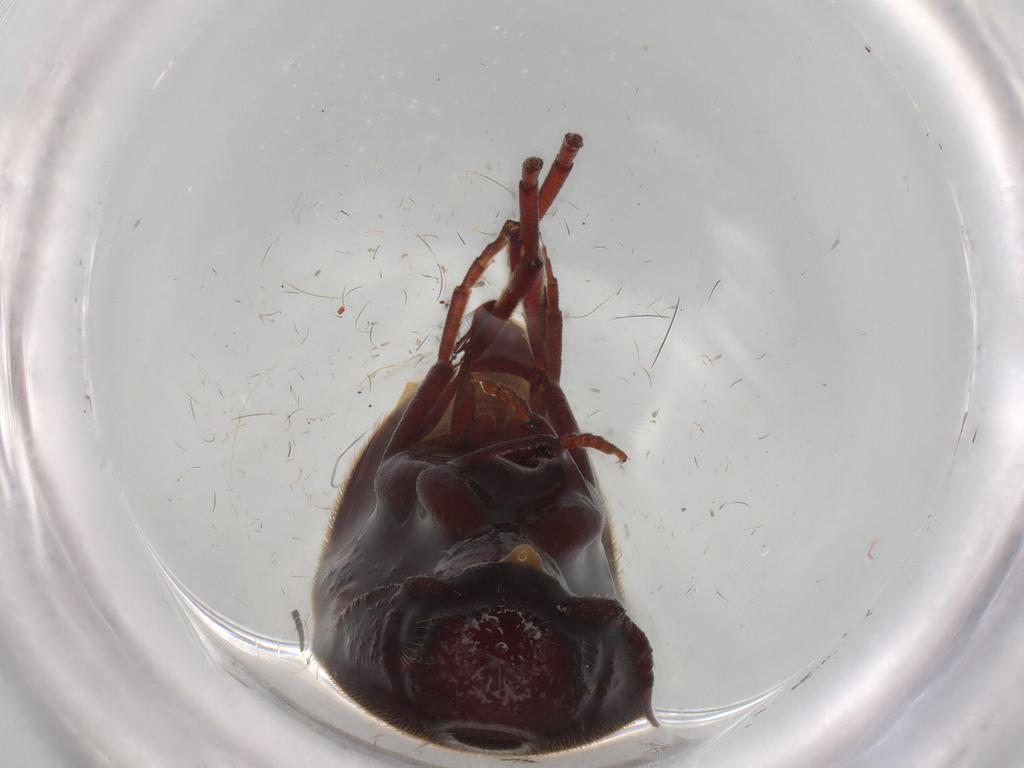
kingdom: Animalia
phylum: Arthropoda
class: Insecta
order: Coleoptera
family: Eucnemidae
